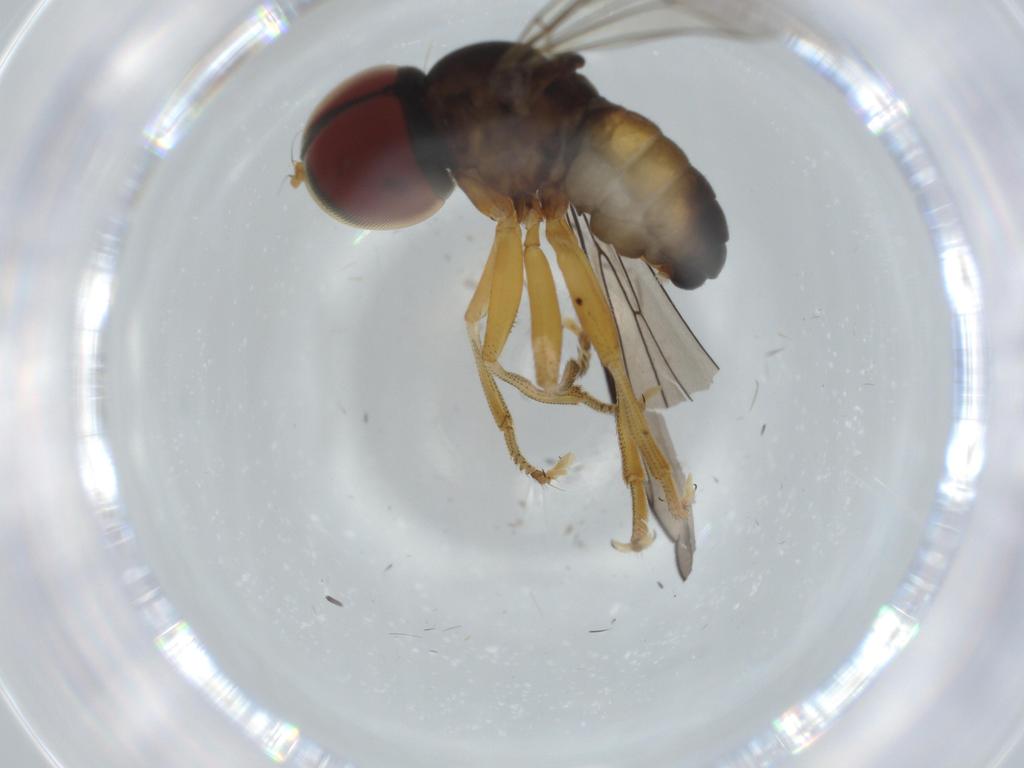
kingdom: Animalia
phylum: Arthropoda
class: Insecta
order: Diptera
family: Pipunculidae
